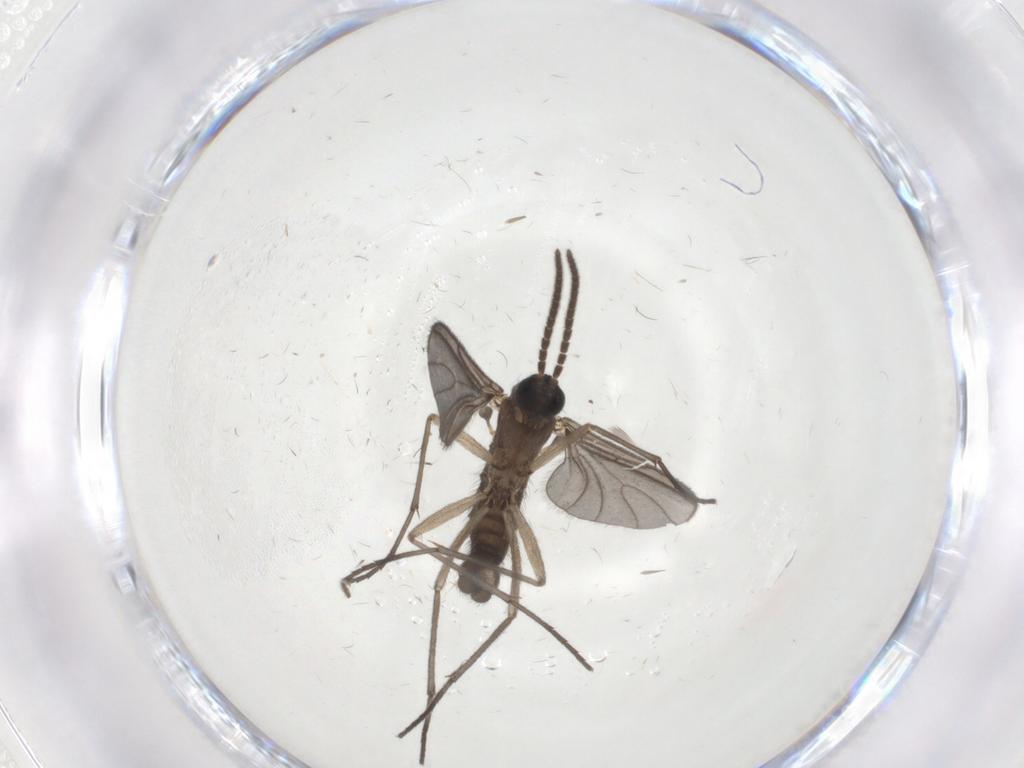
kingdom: Animalia
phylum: Arthropoda
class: Insecta
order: Diptera
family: Sciaridae
